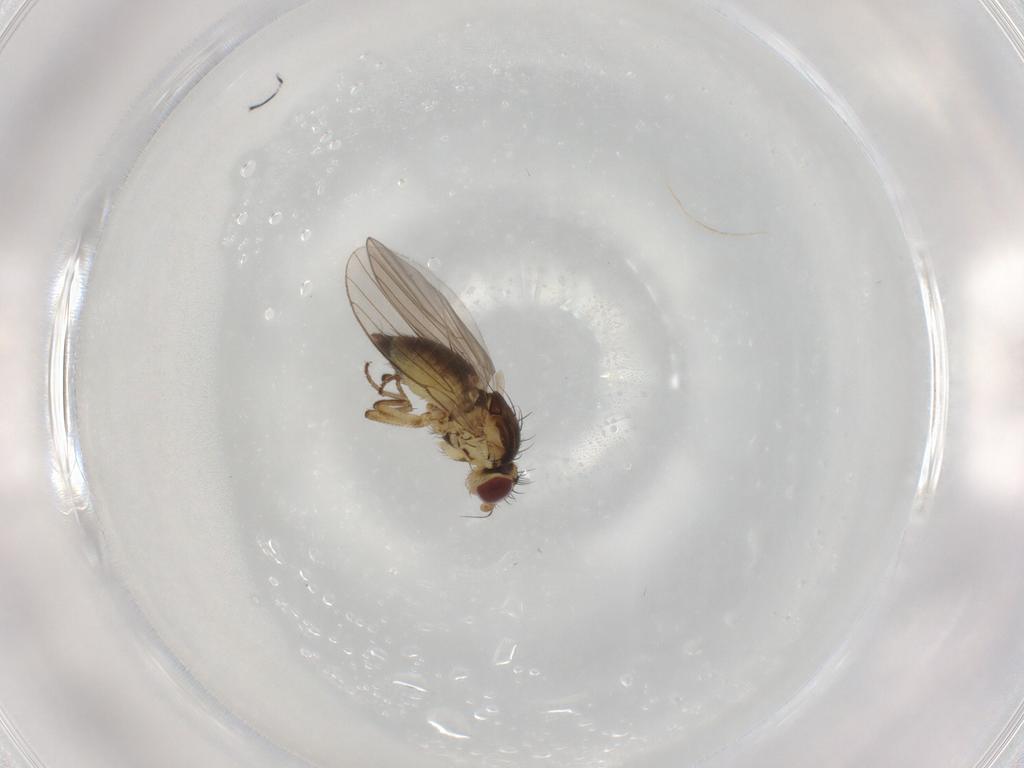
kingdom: Animalia
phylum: Arthropoda
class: Insecta
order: Diptera
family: Agromyzidae
